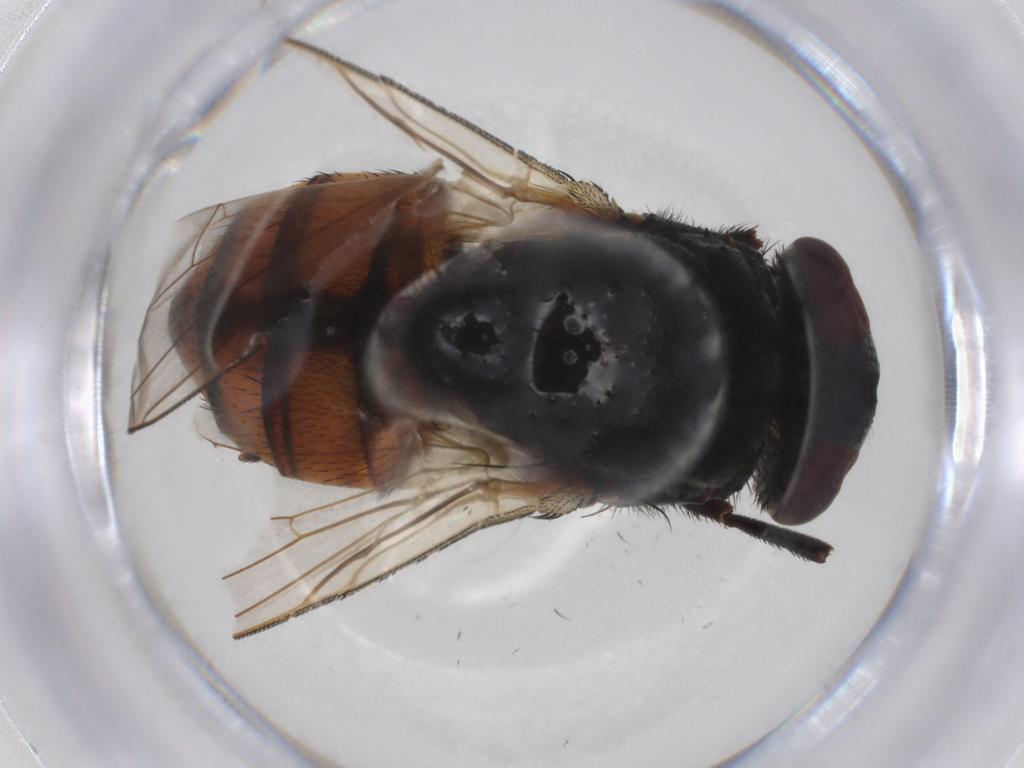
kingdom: Animalia
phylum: Arthropoda
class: Insecta
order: Diptera
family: Muscidae
